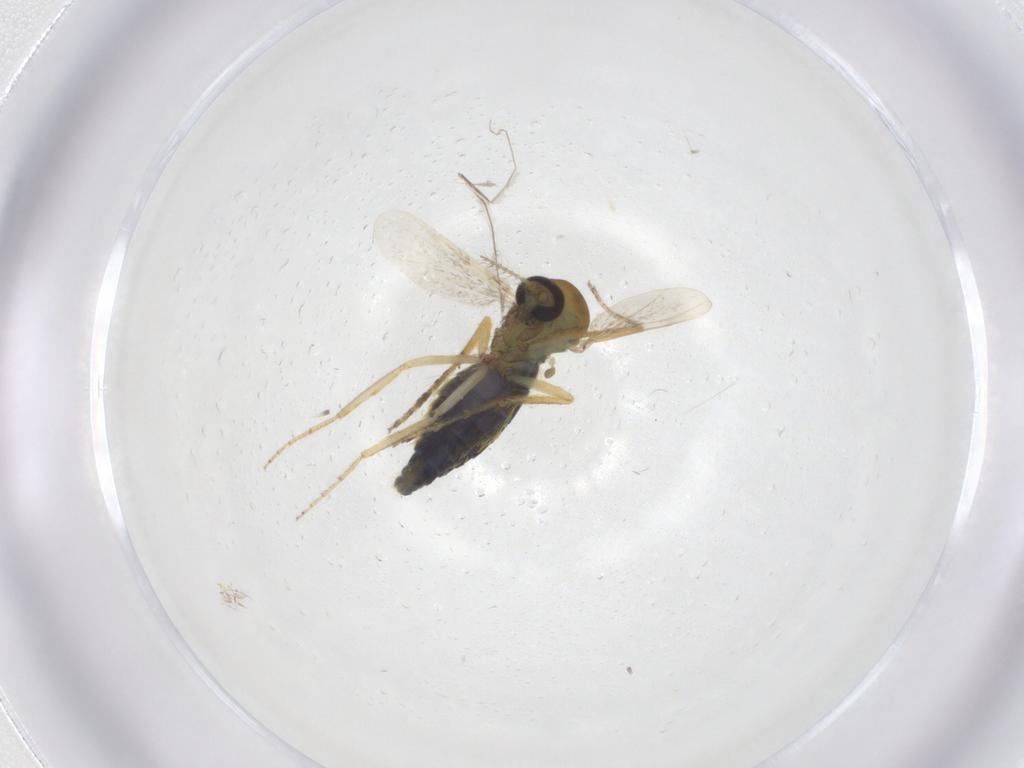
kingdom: Animalia
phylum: Arthropoda
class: Insecta
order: Diptera
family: Ceratopogonidae
